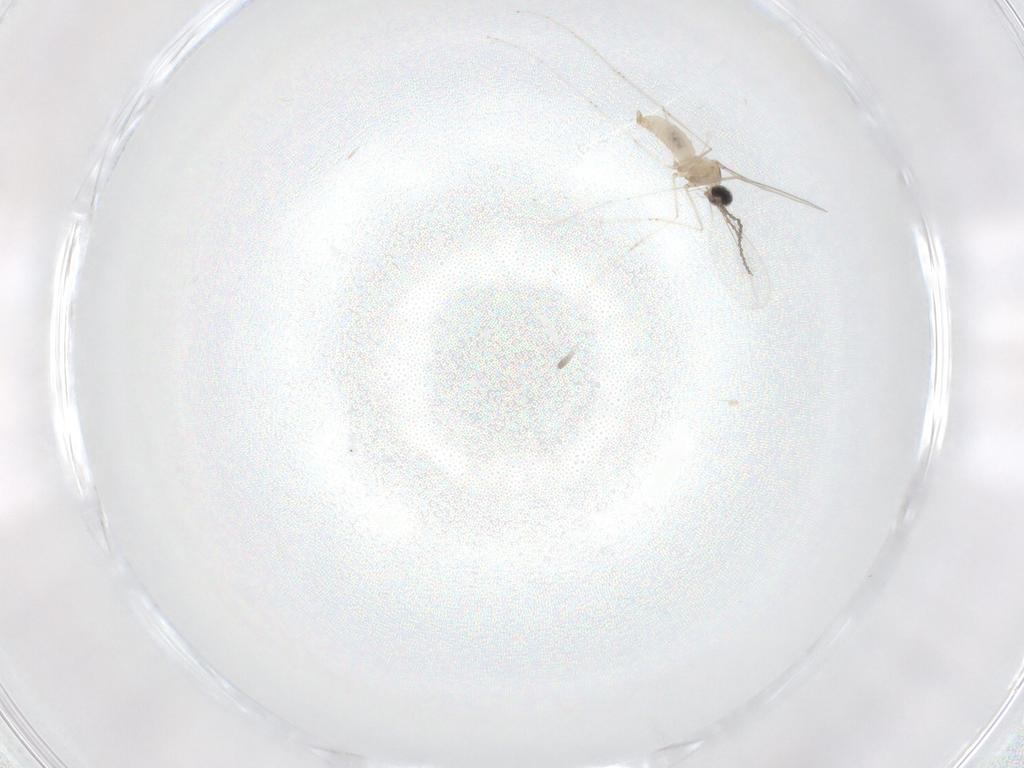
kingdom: Animalia
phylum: Arthropoda
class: Insecta
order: Diptera
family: Cecidomyiidae
